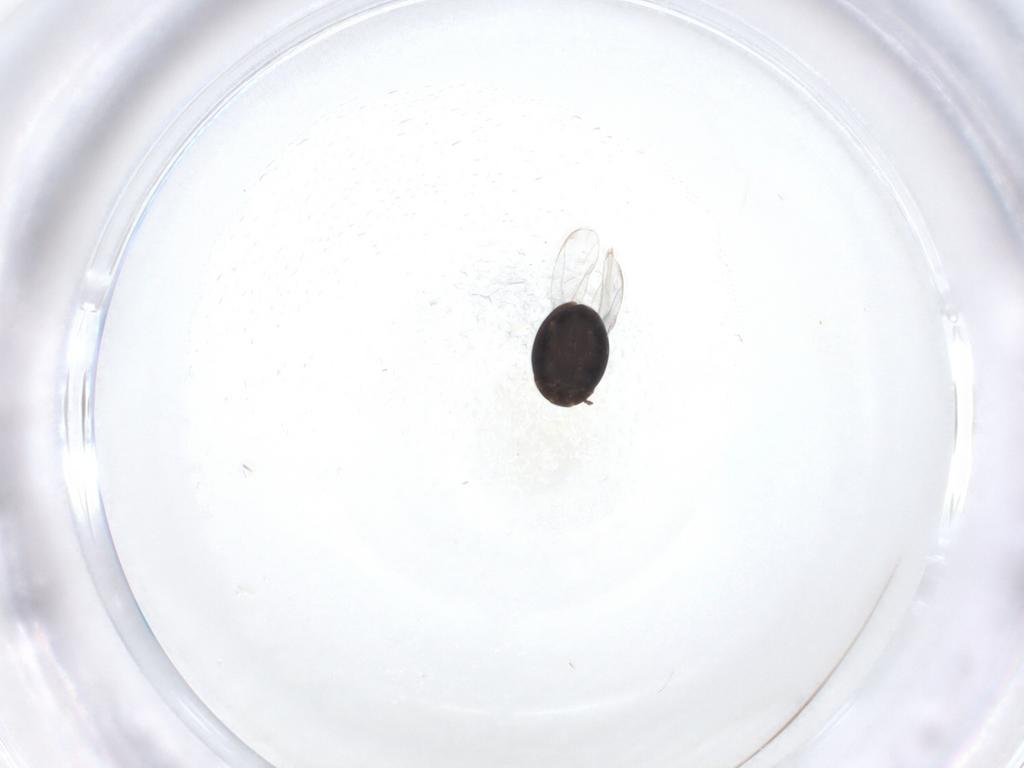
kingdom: Animalia
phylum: Arthropoda
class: Insecta
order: Coleoptera
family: Corylophidae
